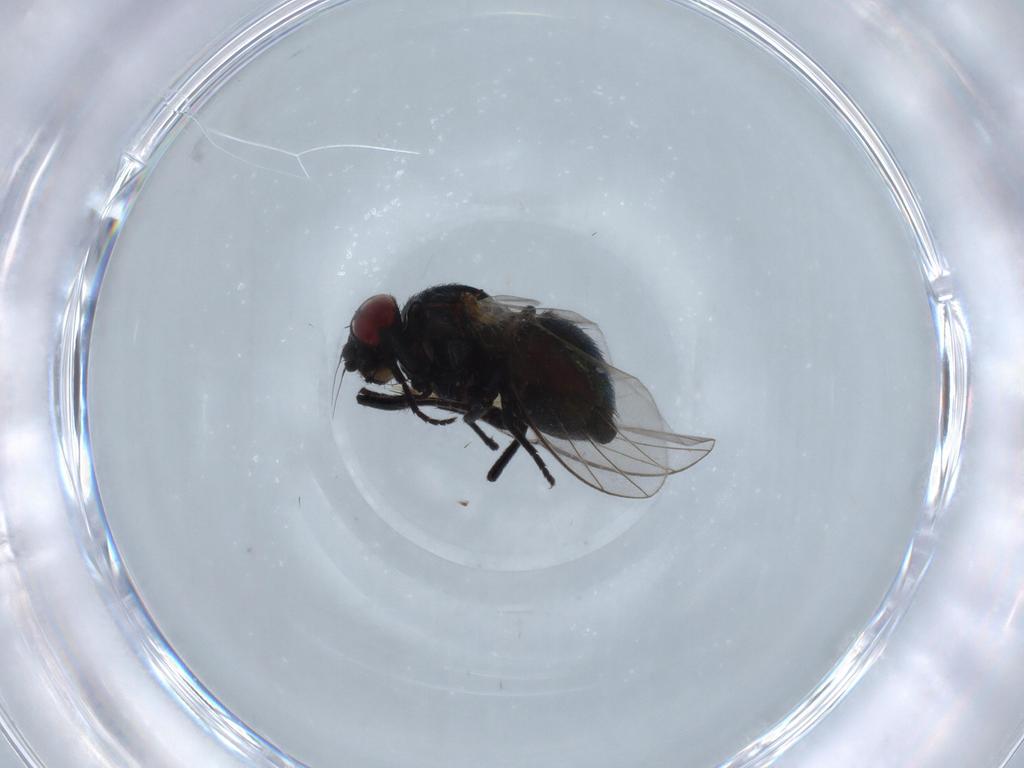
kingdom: Animalia
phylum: Arthropoda
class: Insecta
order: Diptera
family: Agromyzidae
